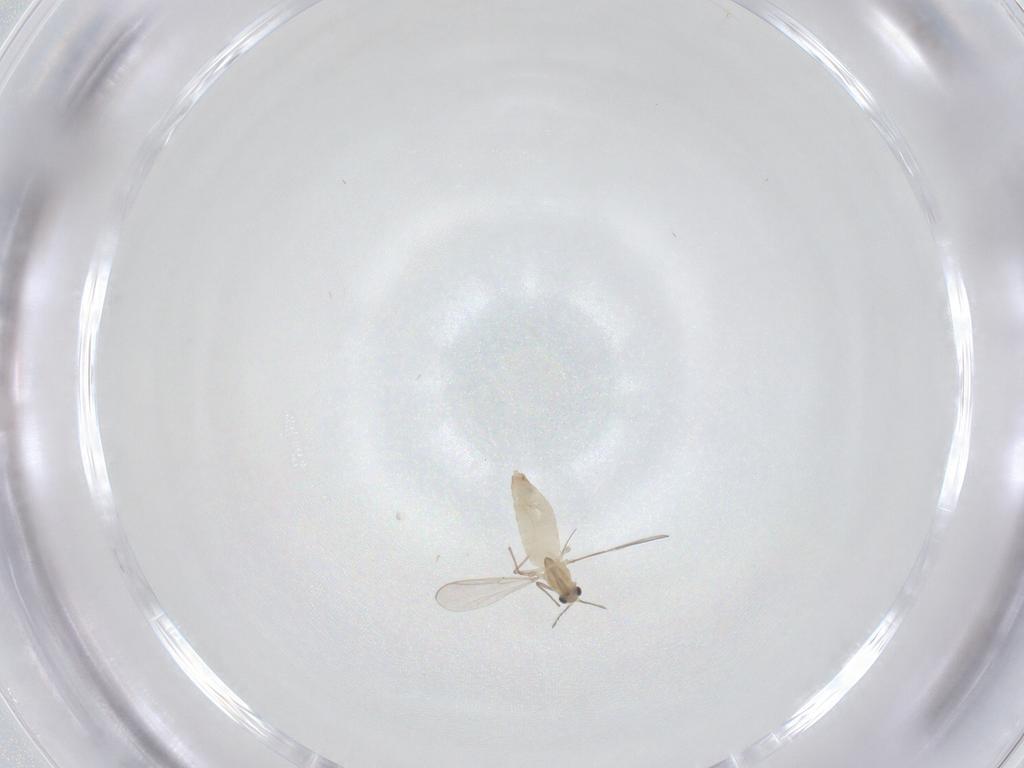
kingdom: Animalia
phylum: Arthropoda
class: Insecta
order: Diptera
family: Chironomidae
